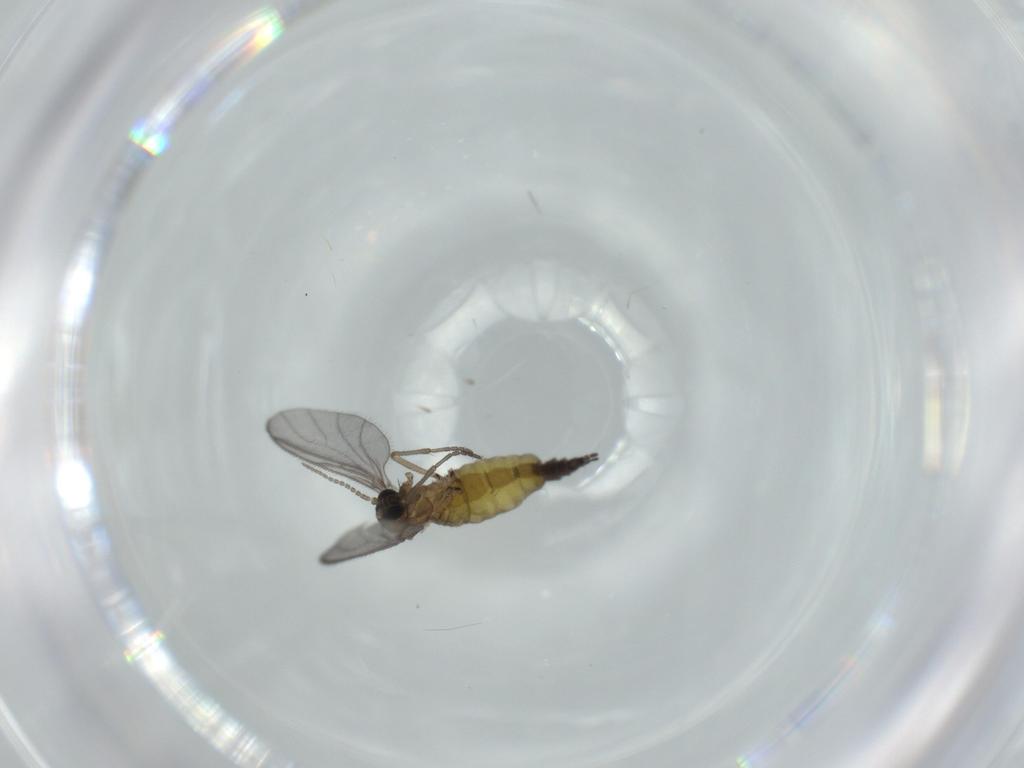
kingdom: Animalia
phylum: Arthropoda
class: Insecta
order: Diptera
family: Sciaridae
